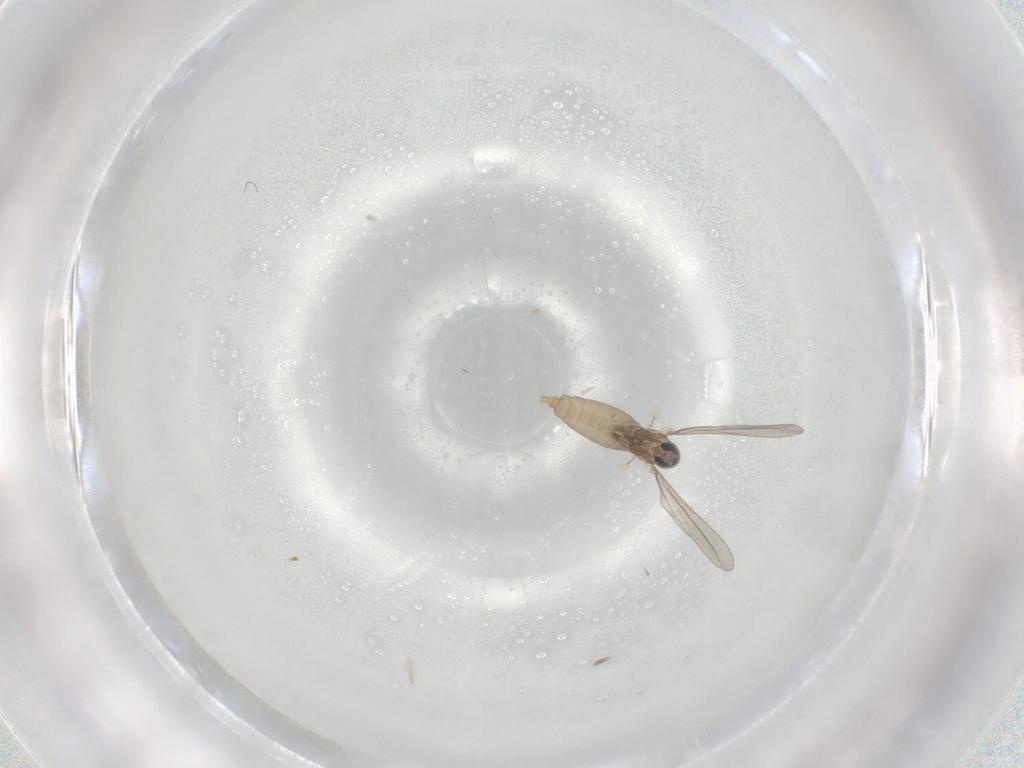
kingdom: Animalia
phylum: Arthropoda
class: Insecta
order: Diptera
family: Cecidomyiidae
